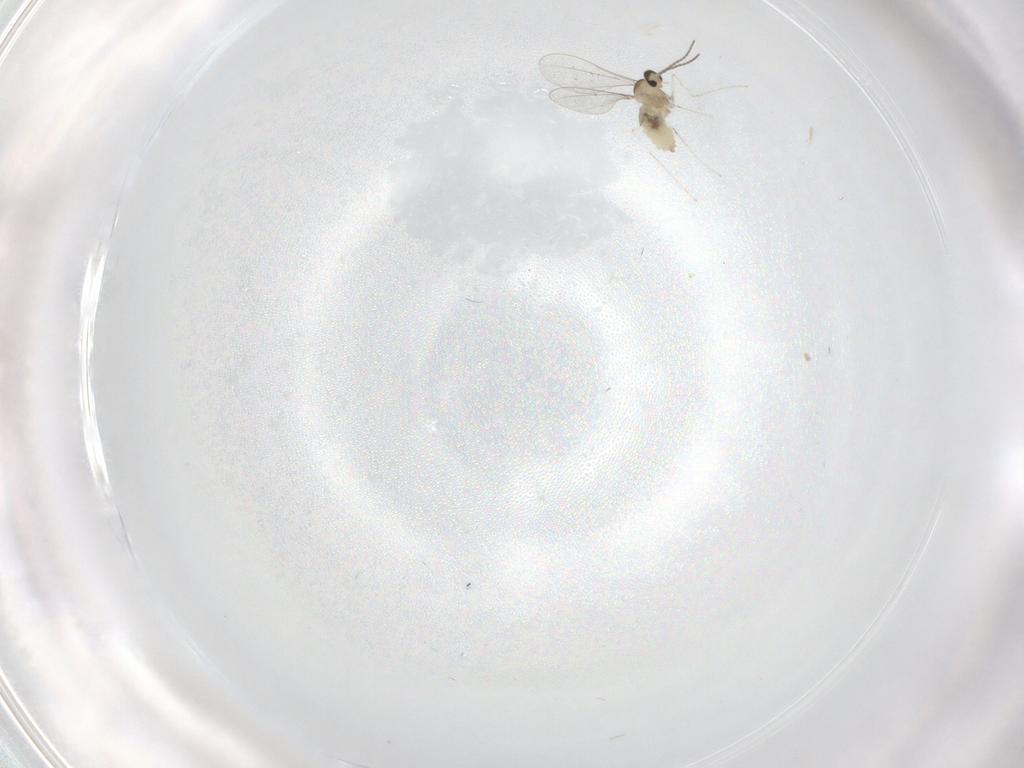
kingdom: Animalia
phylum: Arthropoda
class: Insecta
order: Diptera
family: Cecidomyiidae
